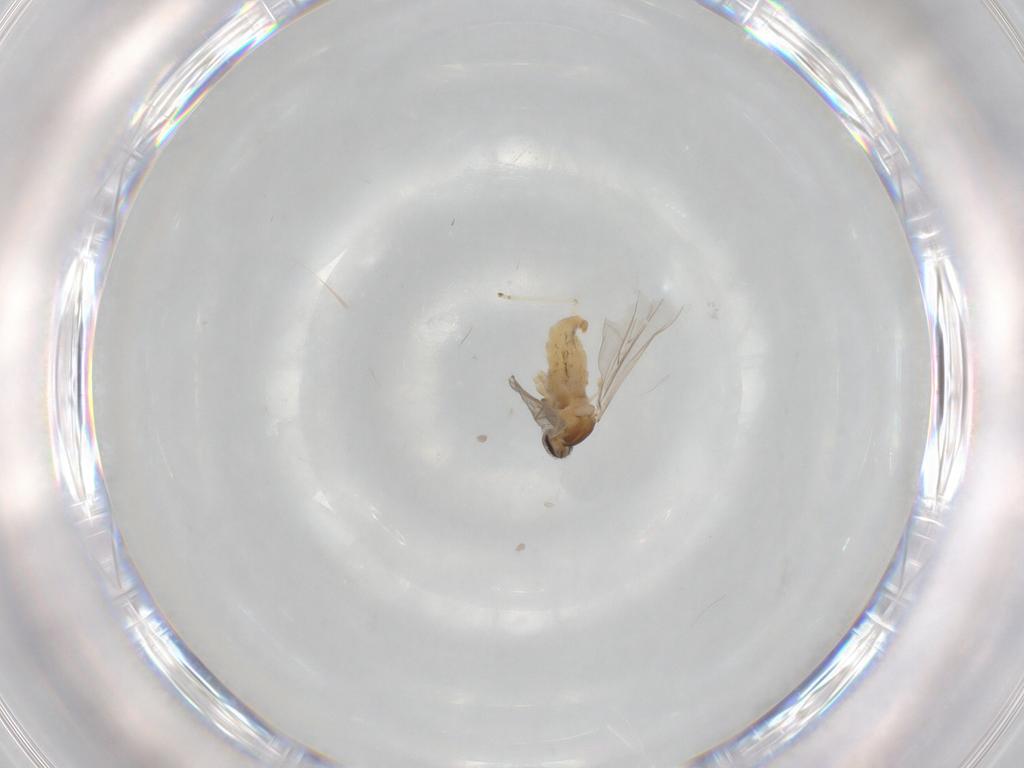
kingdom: Animalia
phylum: Arthropoda
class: Insecta
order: Diptera
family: Cecidomyiidae
